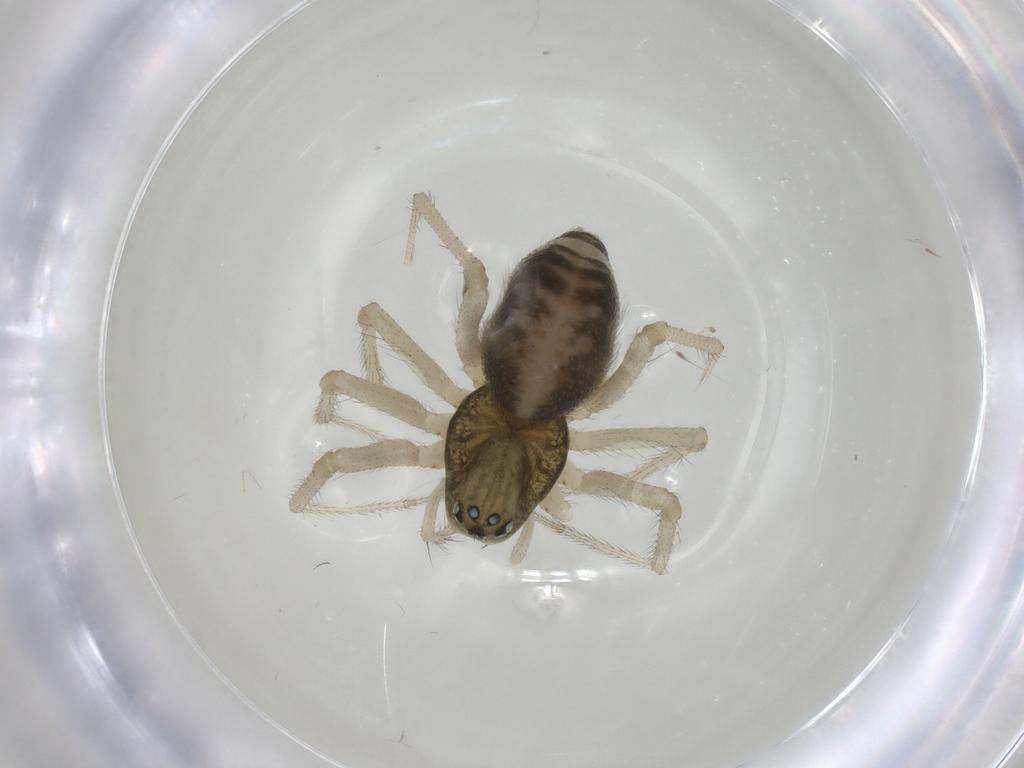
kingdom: Animalia
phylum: Arthropoda
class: Arachnida
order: Araneae
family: Linyphiidae
